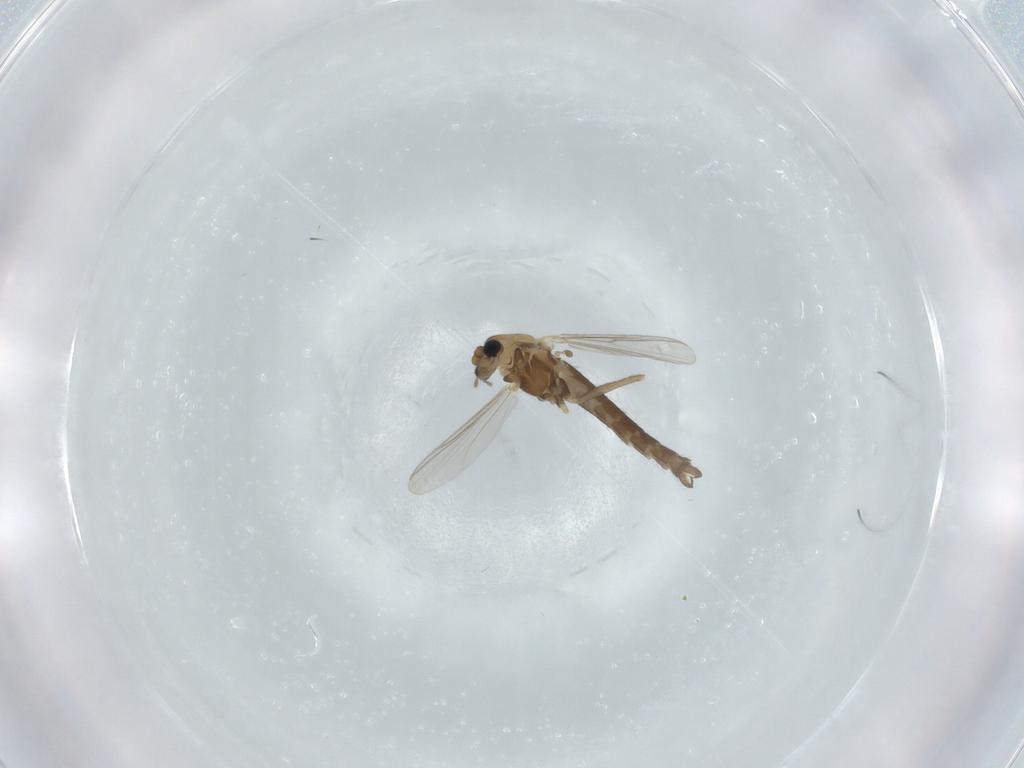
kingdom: Animalia
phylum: Arthropoda
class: Insecta
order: Diptera
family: Chironomidae
